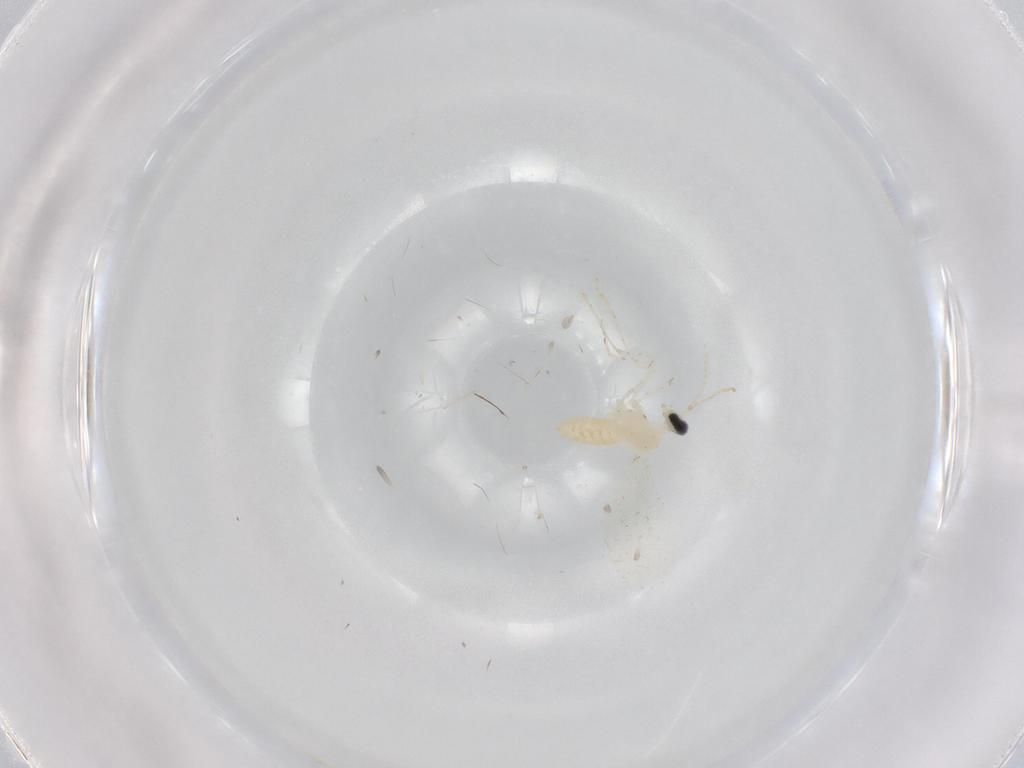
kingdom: Animalia
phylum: Arthropoda
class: Insecta
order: Diptera
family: Cecidomyiidae
